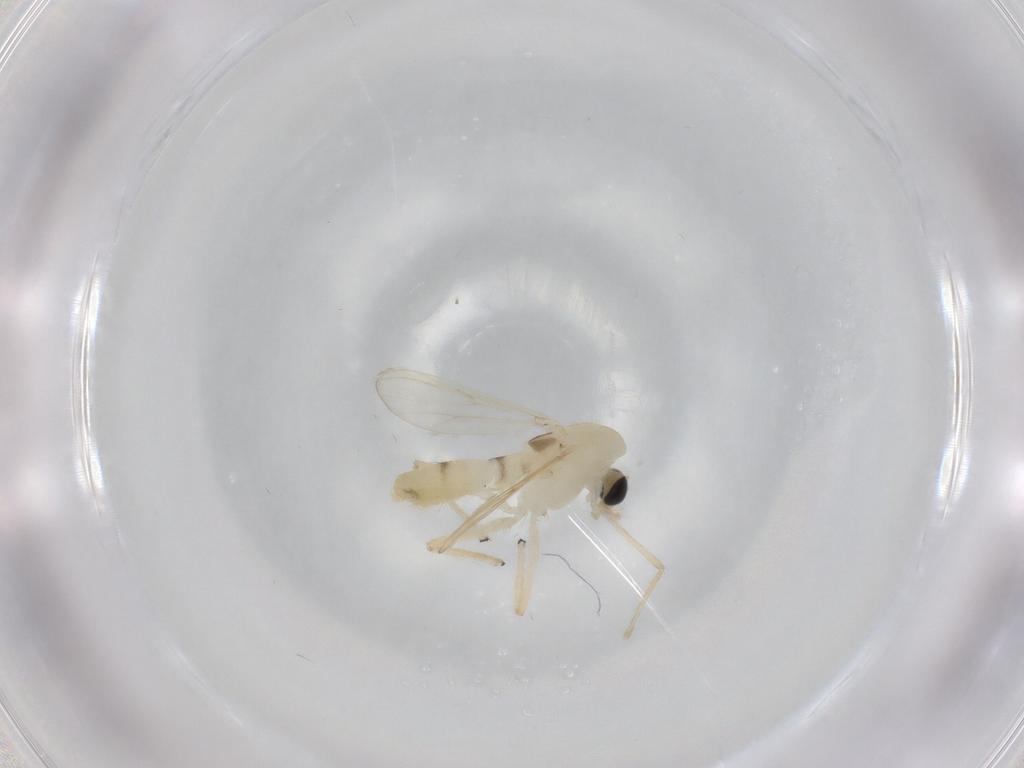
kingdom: Animalia
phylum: Arthropoda
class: Insecta
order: Diptera
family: Chironomidae
